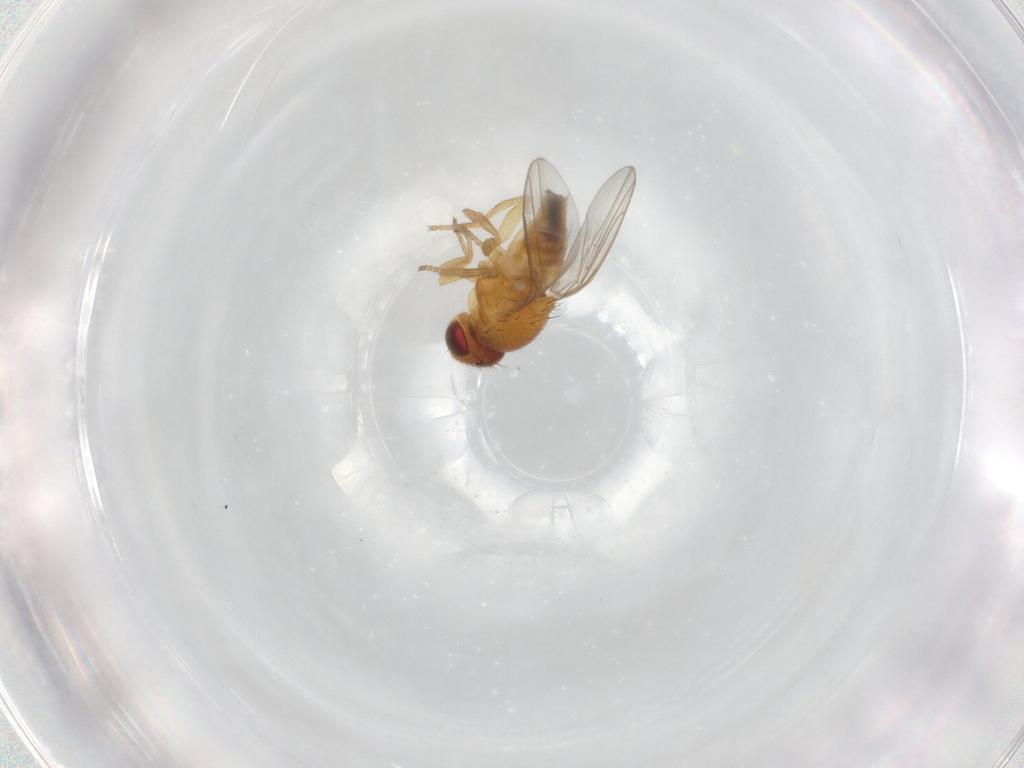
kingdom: Animalia
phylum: Arthropoda
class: Insecta
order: Diptera
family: Chloropidae
